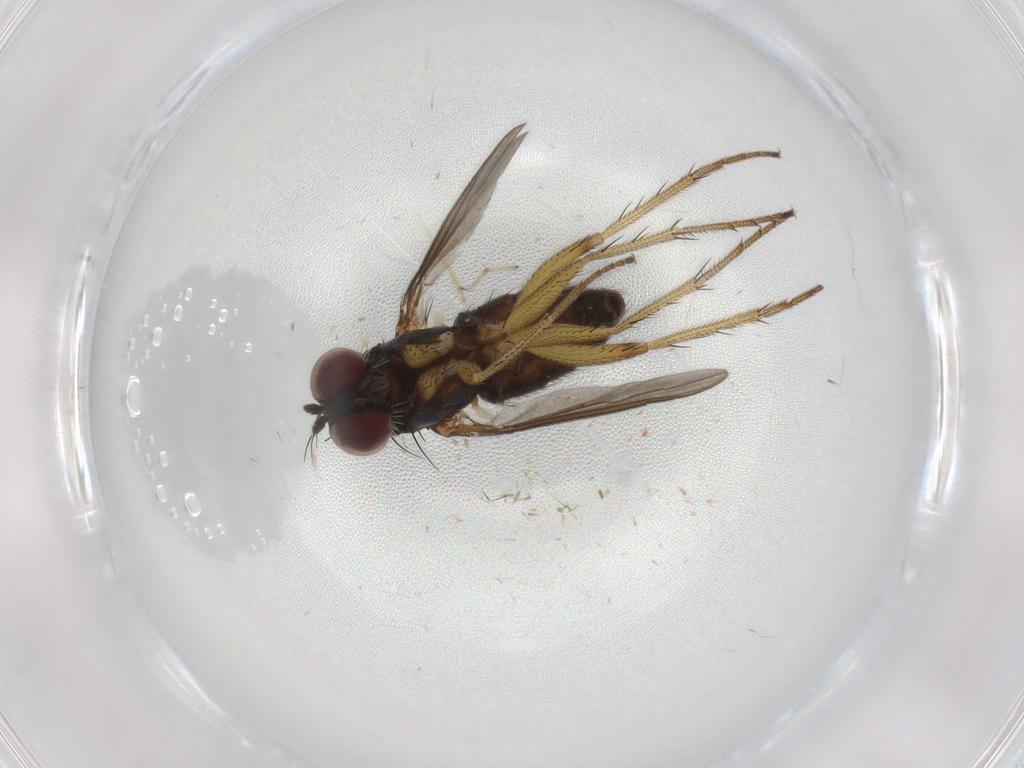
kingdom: Animalia
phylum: Arthropoda
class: Insecta
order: Diptera
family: Dolichopodidae
